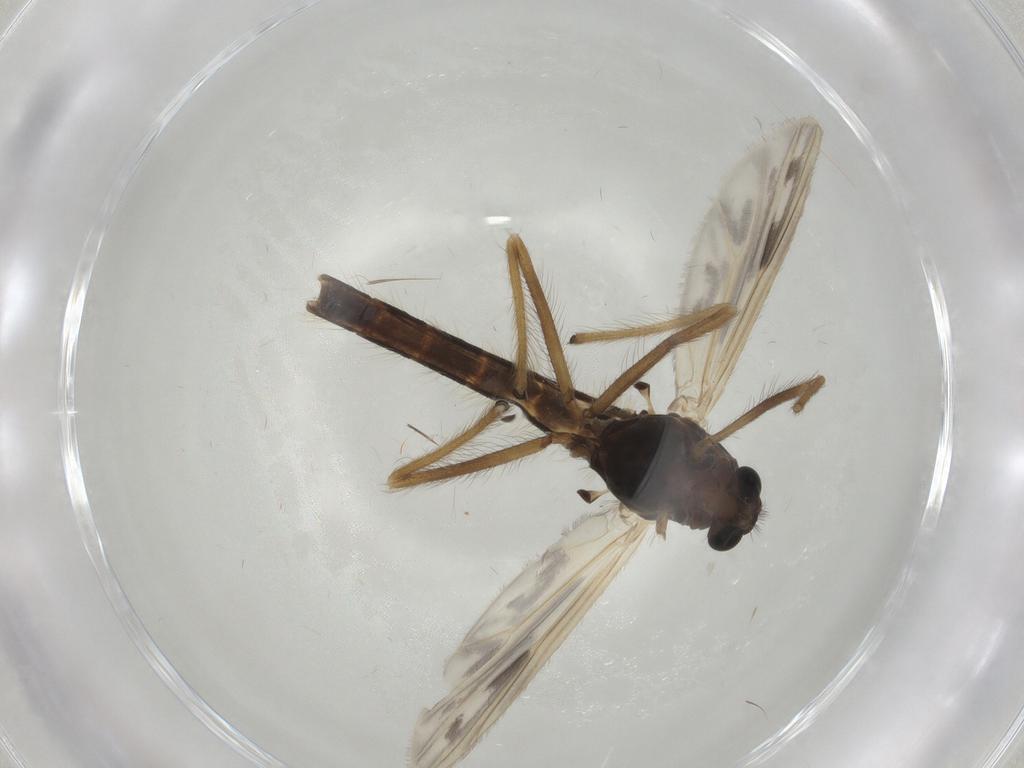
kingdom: Animalia
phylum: Arthropoda
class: Insecta
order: Diptera
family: Chironomidae
